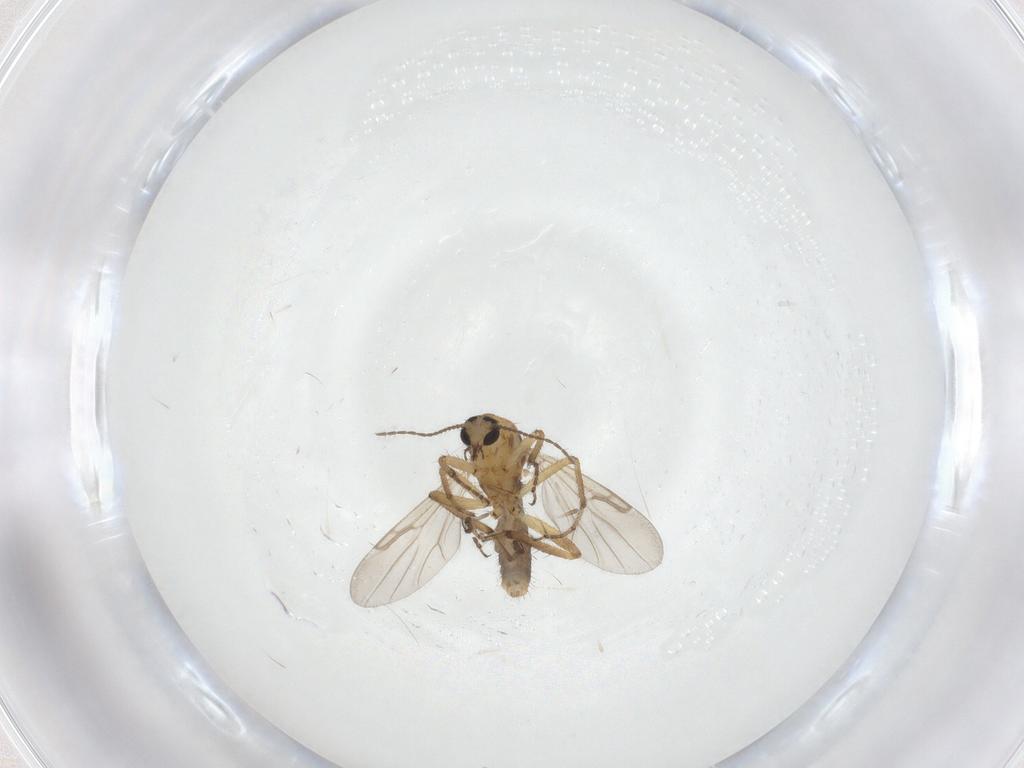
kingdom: Animalia
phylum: Arthropoda
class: Insecta
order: Diptera
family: Ceratopogonidae
